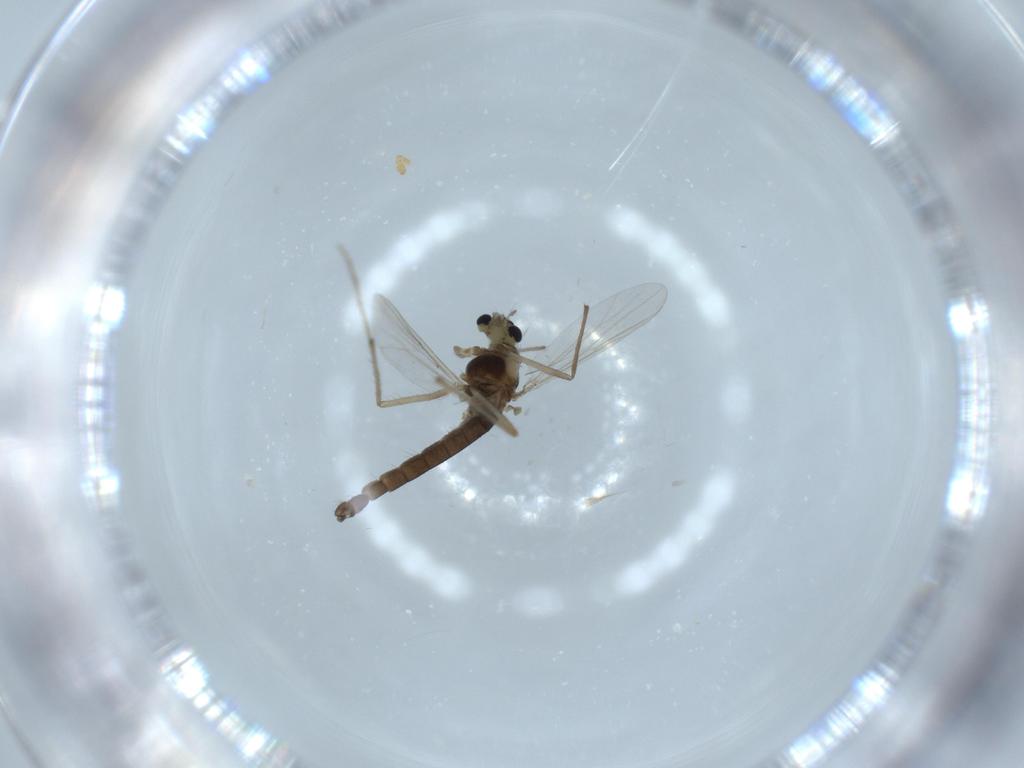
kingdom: Animalia
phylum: Arthropoda
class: Insecta
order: Diptera
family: Chironomidae
